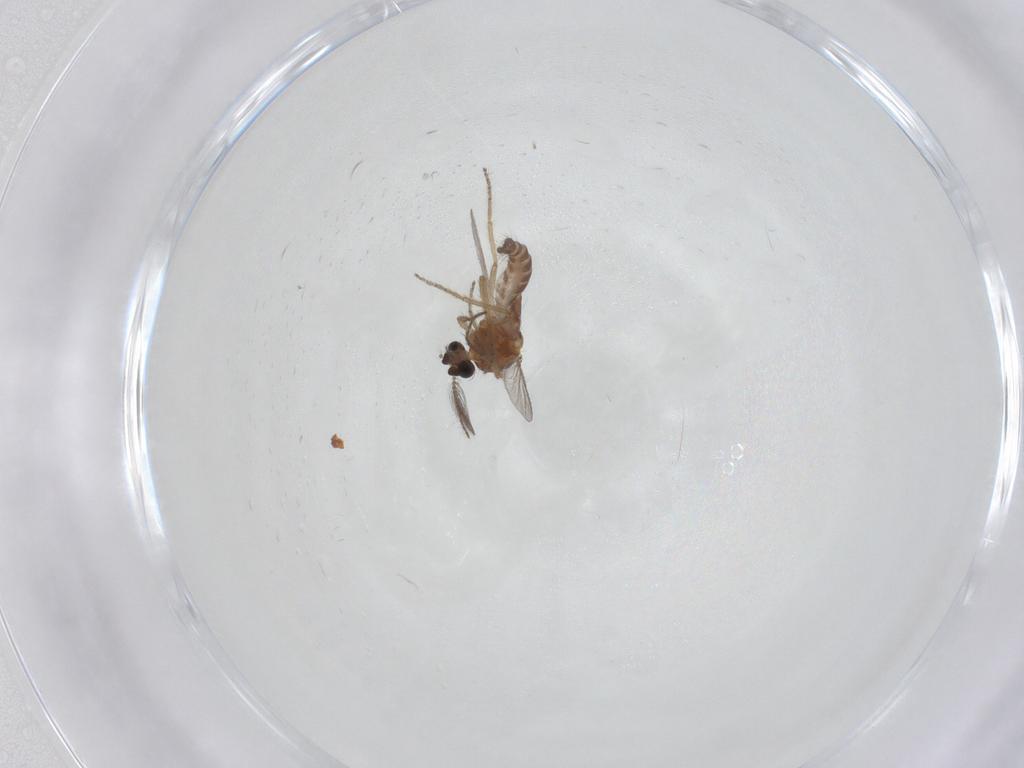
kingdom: Animalia
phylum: Arthropoda
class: Insecta
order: Diptera
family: Ceratopogonidae
